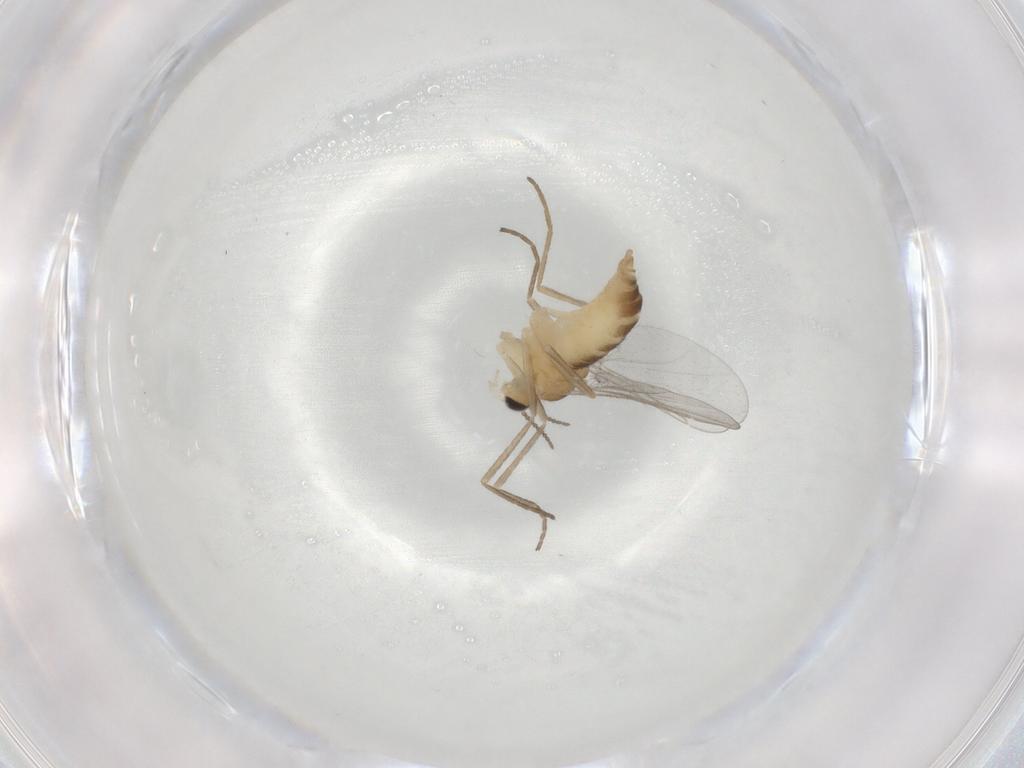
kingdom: Animalia
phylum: Arthropoda
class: Insecta
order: Diptera
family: Cecidomyiidae
